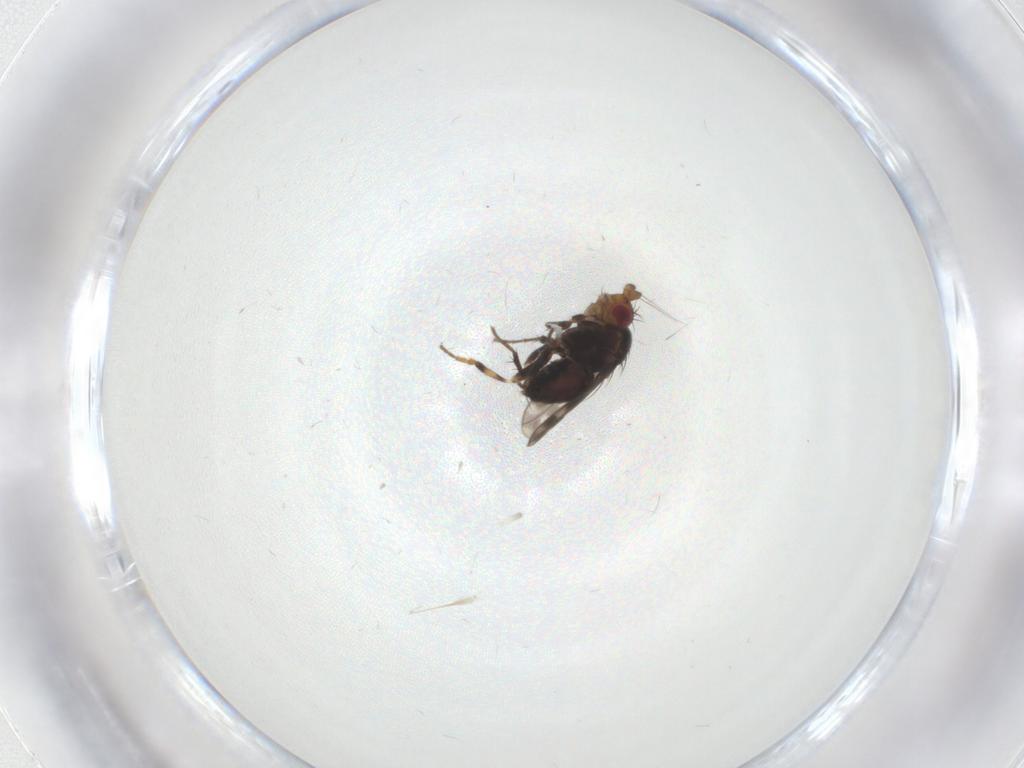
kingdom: Animalia
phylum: Arthropoda
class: Insecta
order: Diptera
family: Sphaeroceridae
